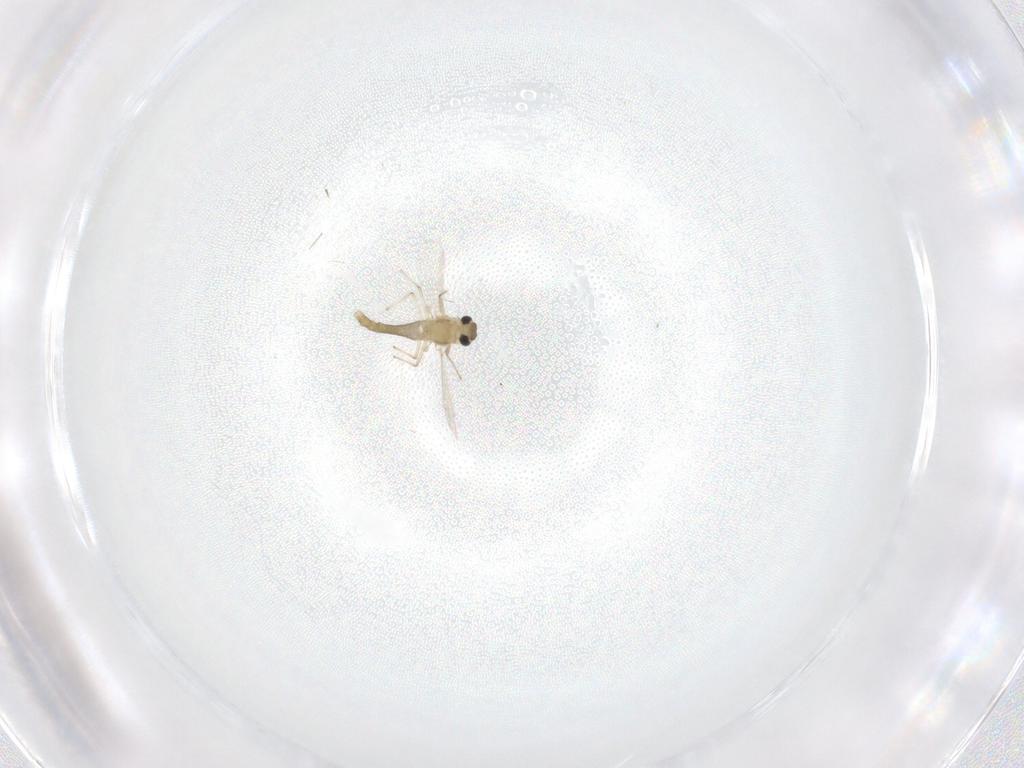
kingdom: Animalia
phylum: Arthropoda
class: Insecta
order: Diptera
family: Chironomidae
